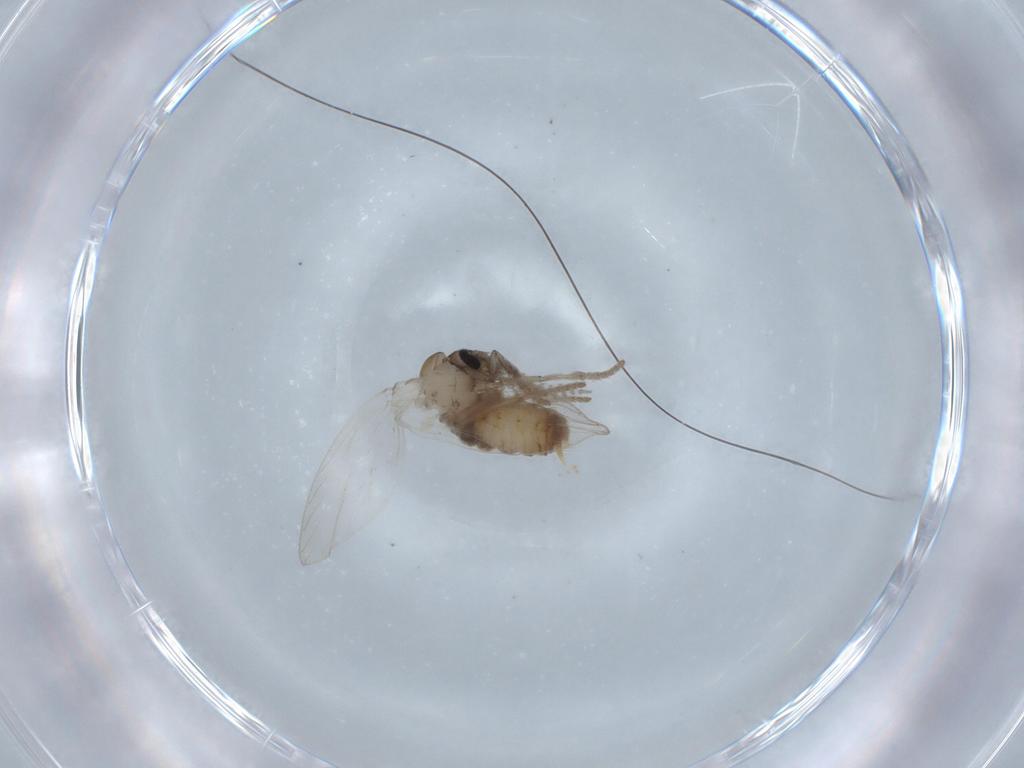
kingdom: Animalia
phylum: Arthropoda
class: Insecta
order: Diptera
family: Psychodidae
